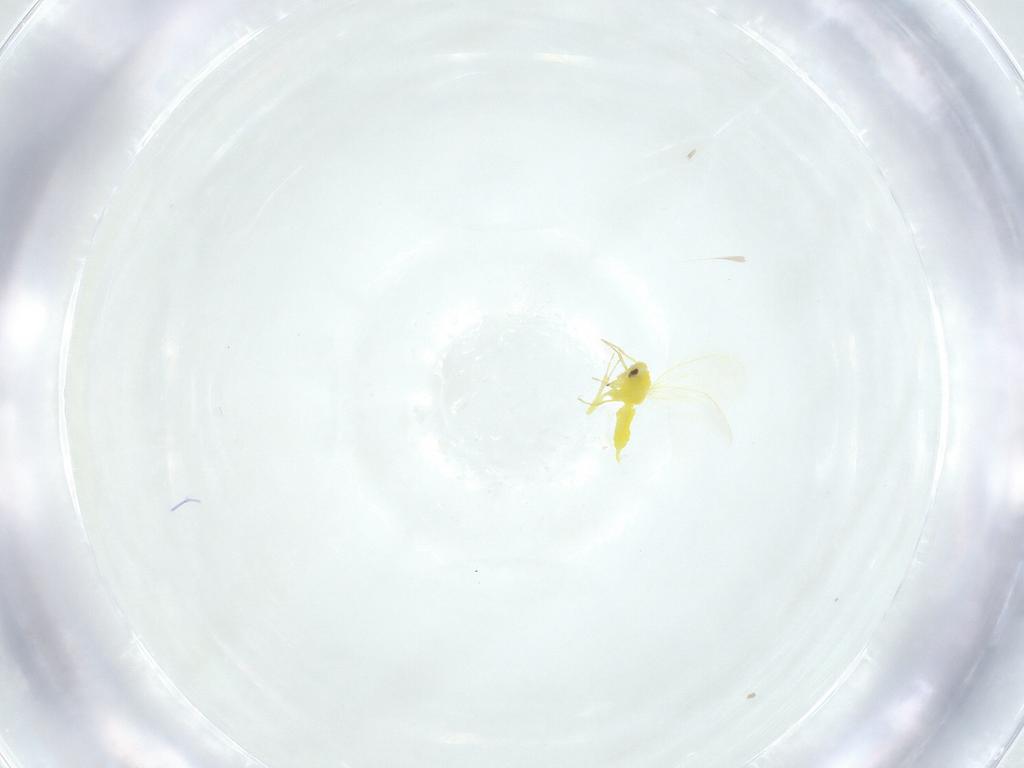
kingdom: Animalia
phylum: Arthropoda
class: Insecta
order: Hemiptera
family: Aleyrodidae
